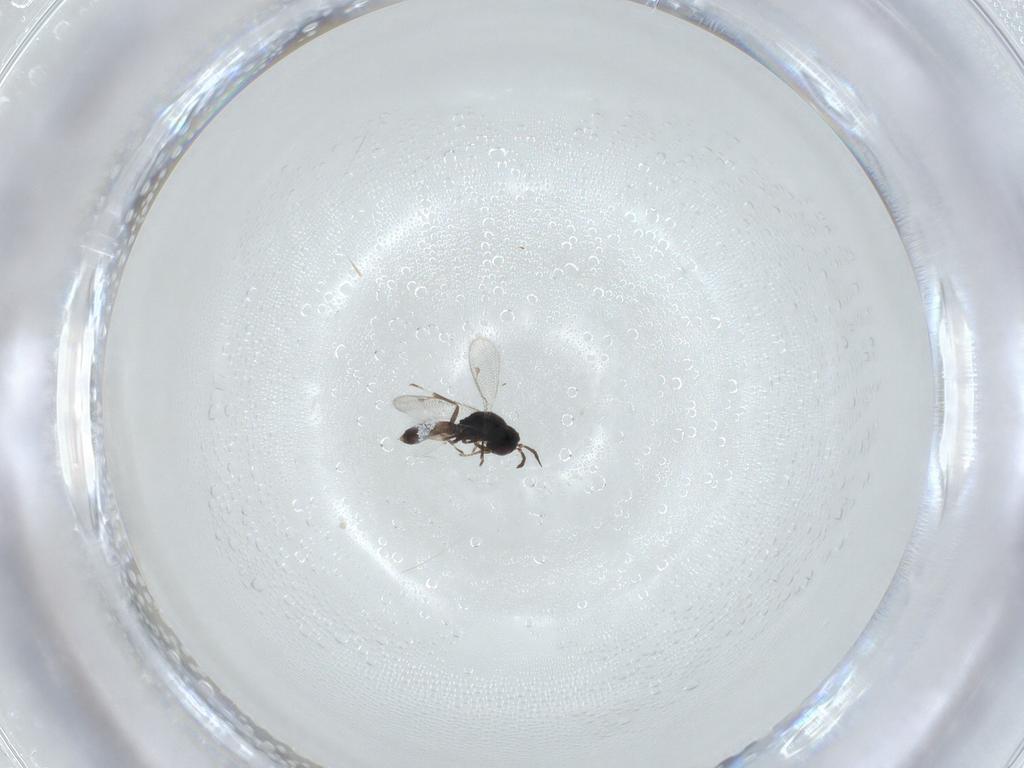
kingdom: Animalia
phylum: Arthropoda
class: Insecta
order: Hymenoptera
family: Pteromalidae
